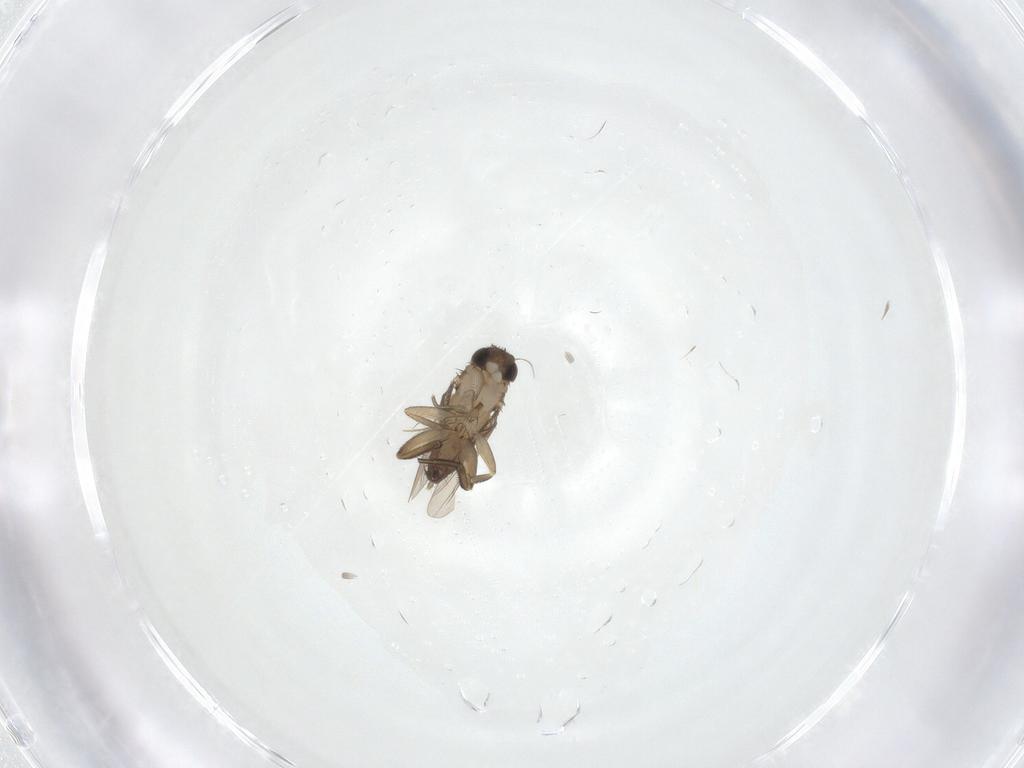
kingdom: Animalia
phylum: Arthropoda
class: Insecta
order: Diptera
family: Phoridae
